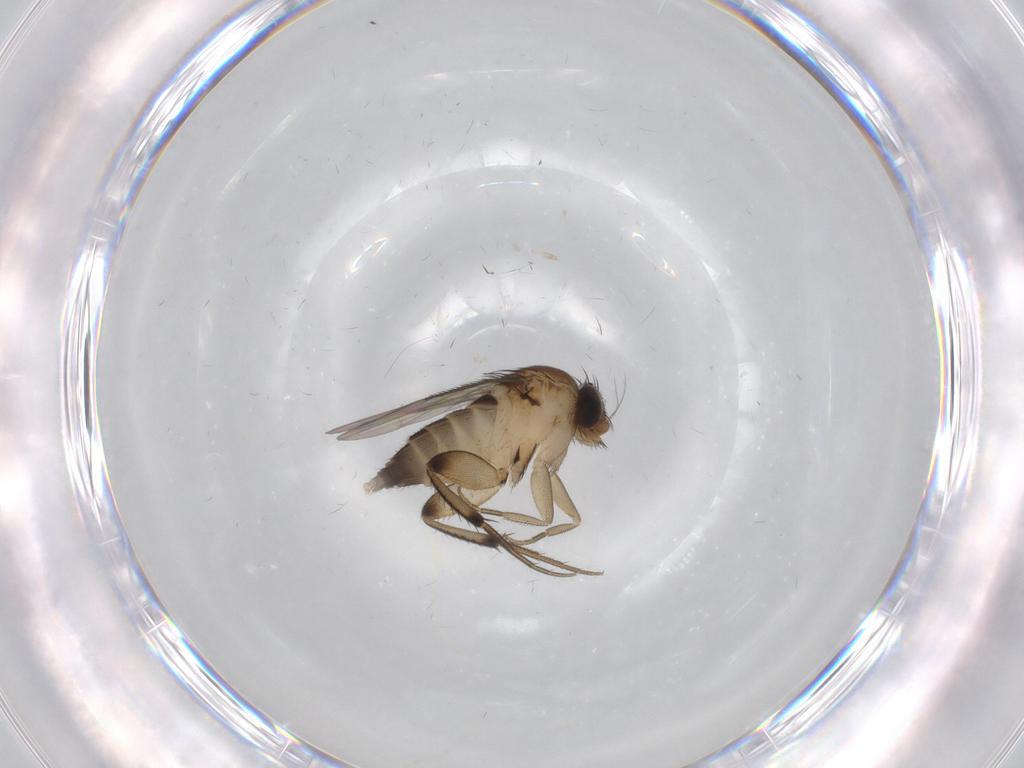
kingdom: Animalia
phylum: Arthropoda
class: Insecta
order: Diptera
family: Phoridae
